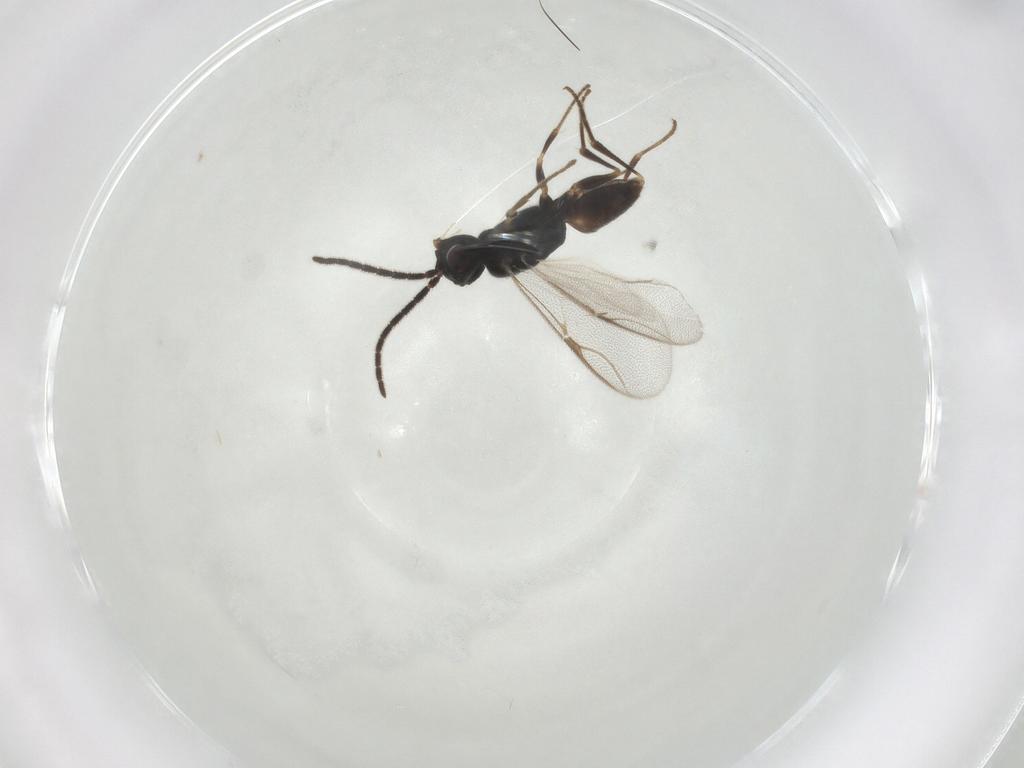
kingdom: Animalia
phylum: Arthropoda
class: Insecta
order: Hymenoptera
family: Dryinidae
